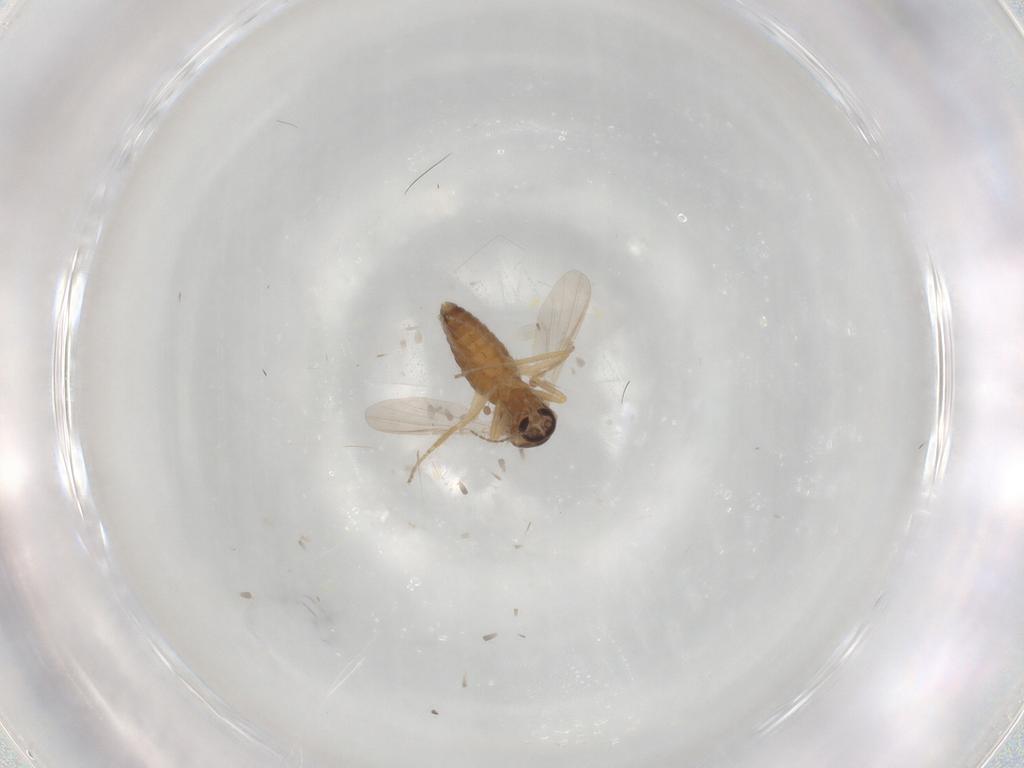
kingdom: Animalia
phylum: Arthropoda
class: Insecta
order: Diptera
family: Ceratopogonidae
